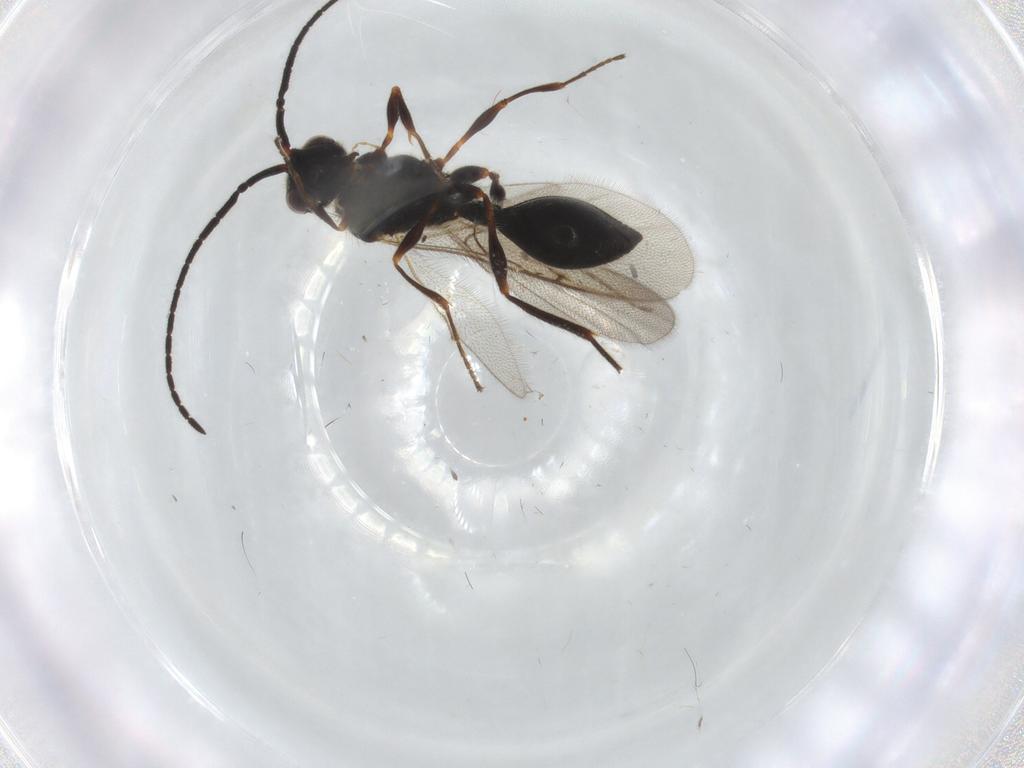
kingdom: Animalia
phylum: Arthropoda
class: Insecta
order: Hymenoptera
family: Diapriidae
